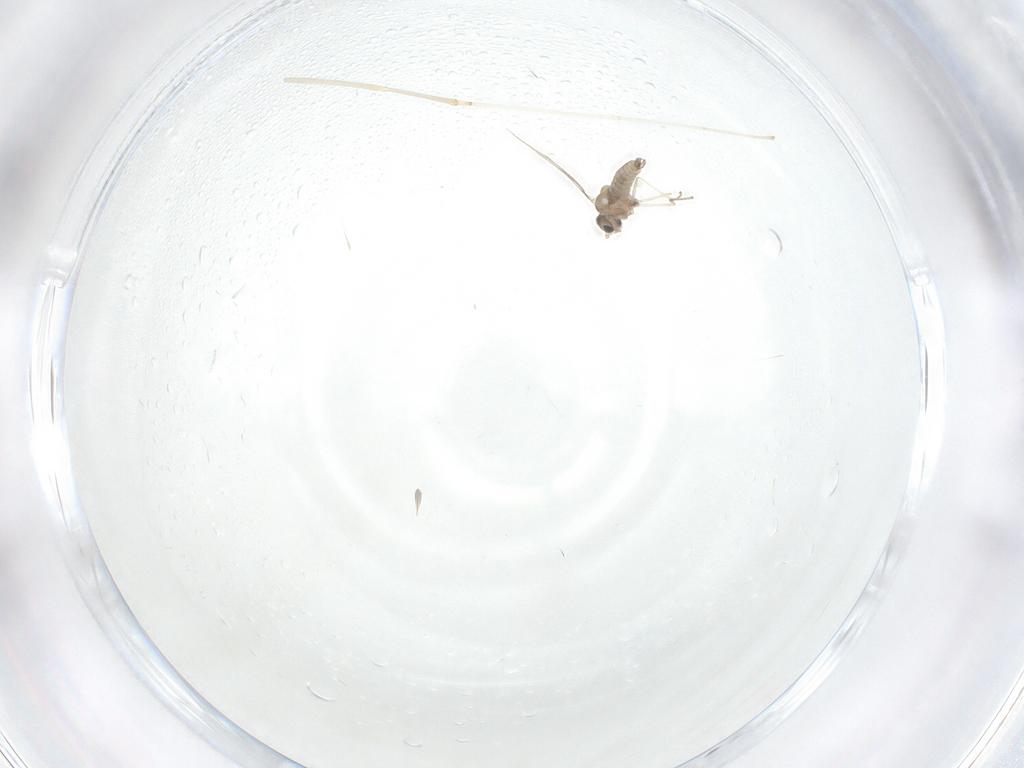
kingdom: Animalia
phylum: Arthropoda
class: Insecta
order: Diptera
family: Cecidomyiidae
